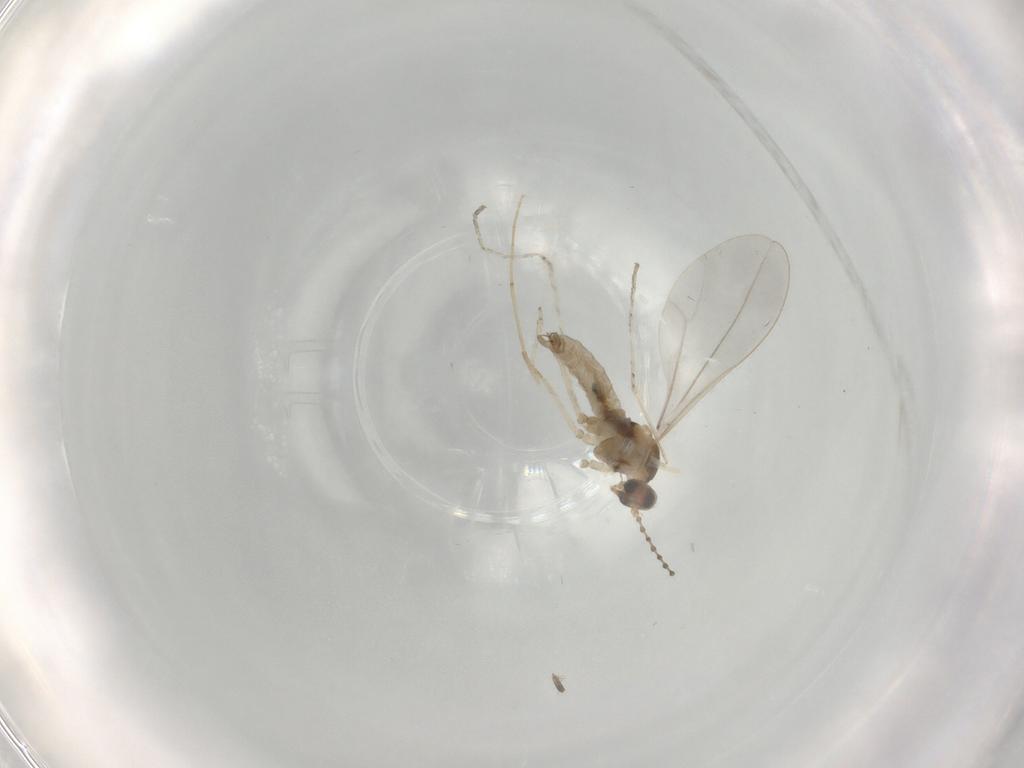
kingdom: Animalia
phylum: Arthropoda
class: Insecta
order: Diptera
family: Cecidomyiidae
